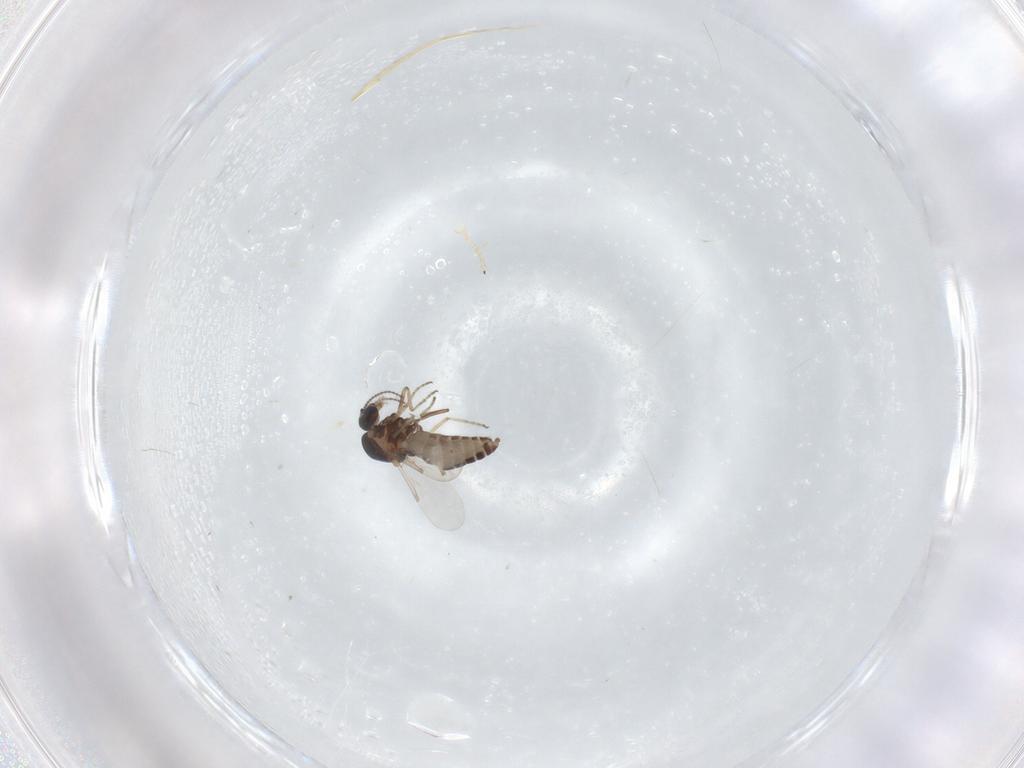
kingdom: Animalia
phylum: Arthropoda
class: Insecta
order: Diptera
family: Ceratopogonidae
